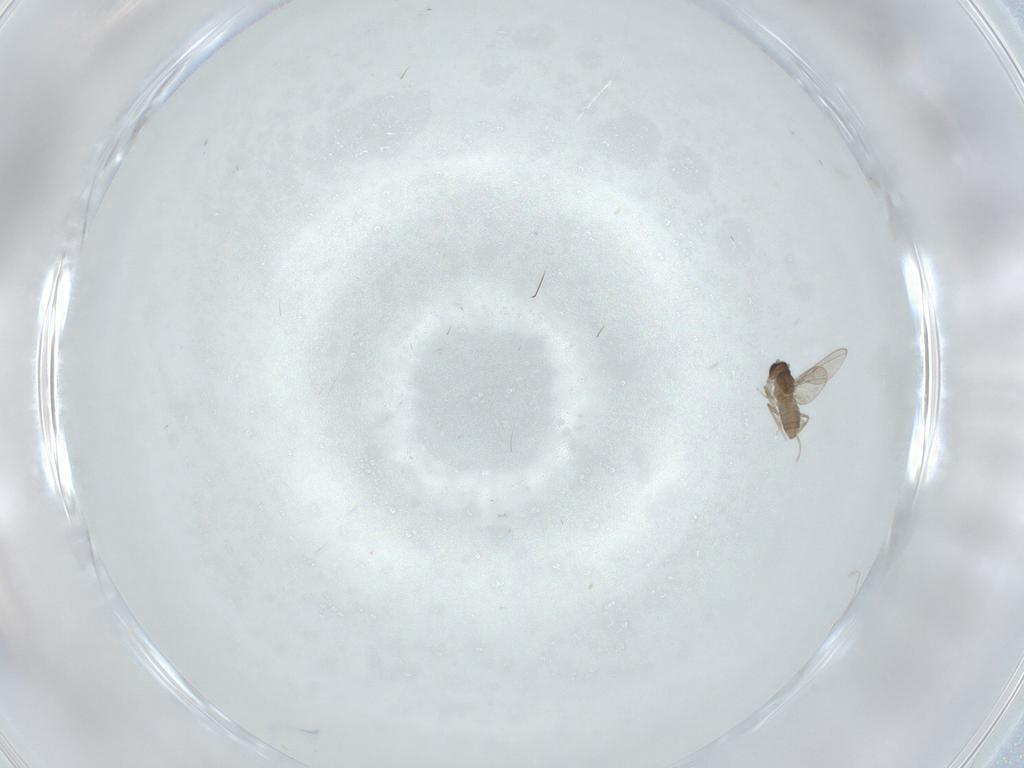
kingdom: Animalia
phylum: Arthropoda
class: Insecta
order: Diptera
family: Cecidomyiidae
